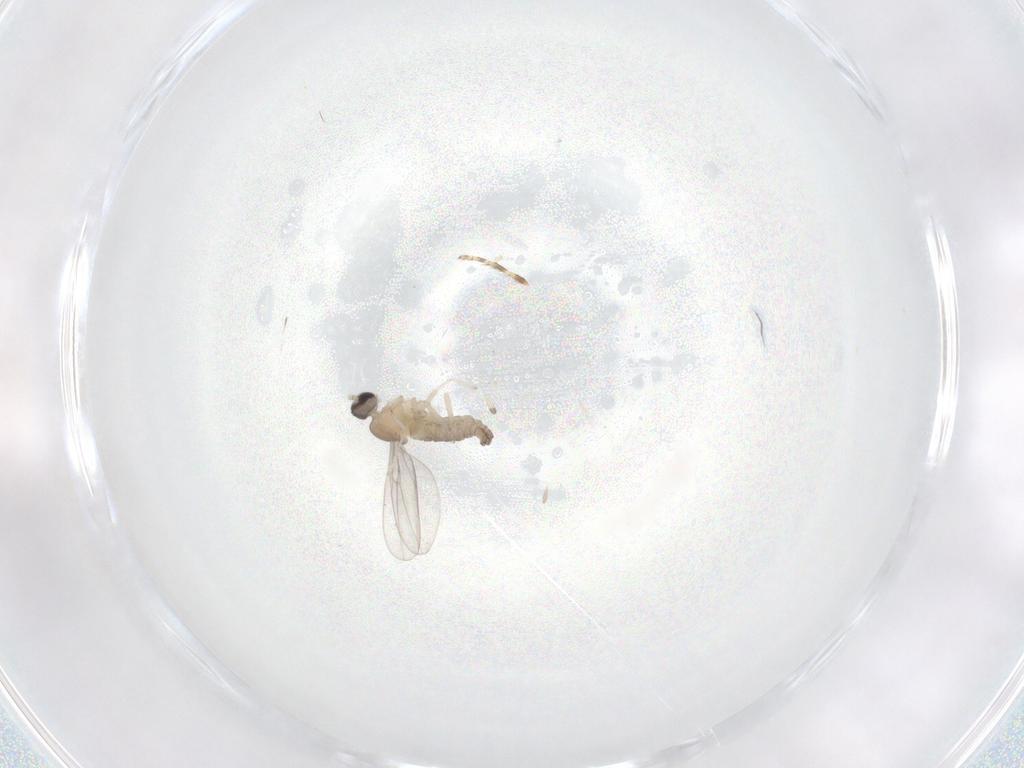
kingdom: Animalia
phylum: Arthropoda
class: Insecta
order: Diptera
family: Cecidomyiidae
